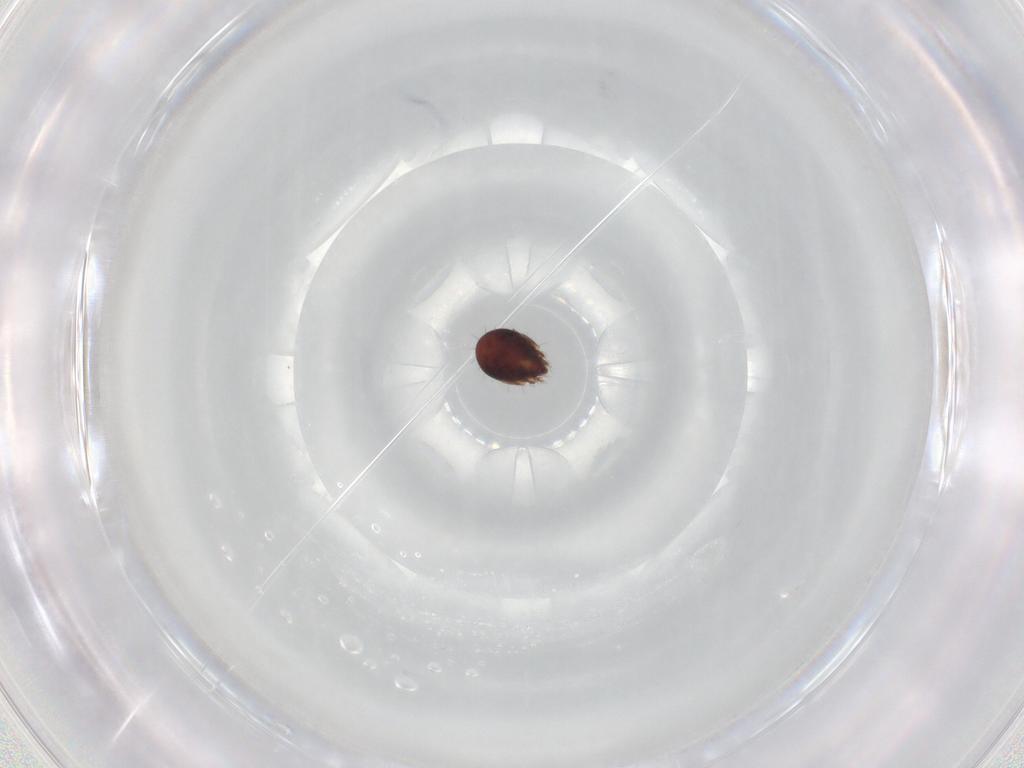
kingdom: Animalia
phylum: Arthropoda
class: Arachnida
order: Sarcoptiformes
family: Humerobatidae
